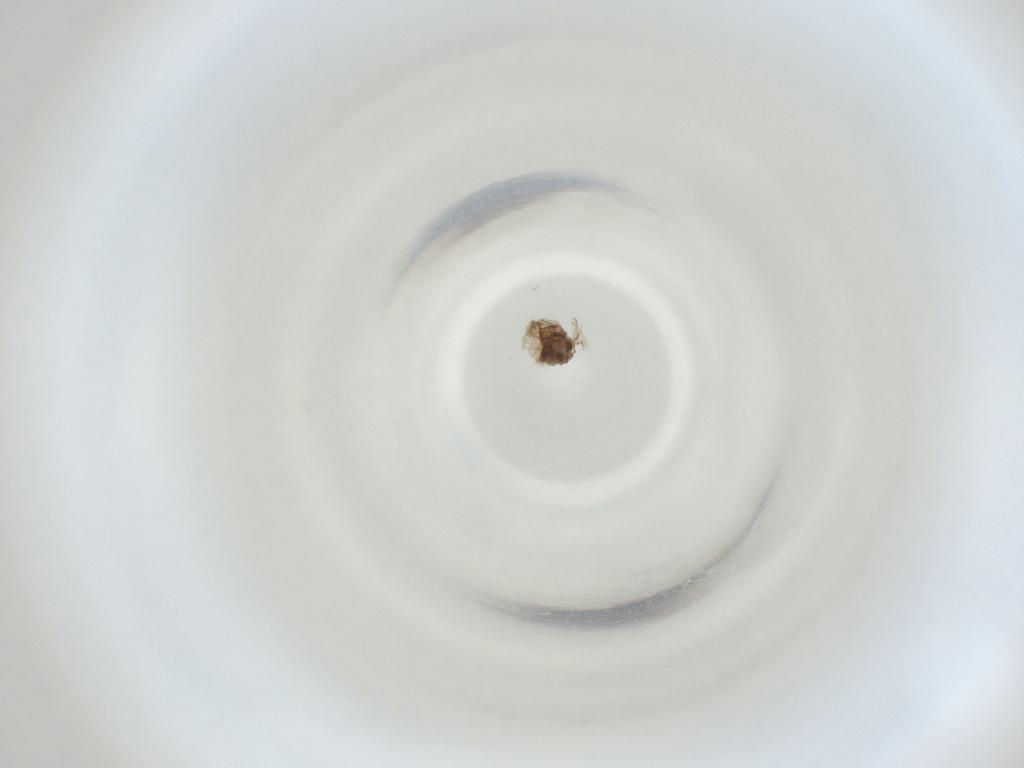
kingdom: Animalia
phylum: Arthropoda
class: Insecta
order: Diptera
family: Cecidomyiidae
